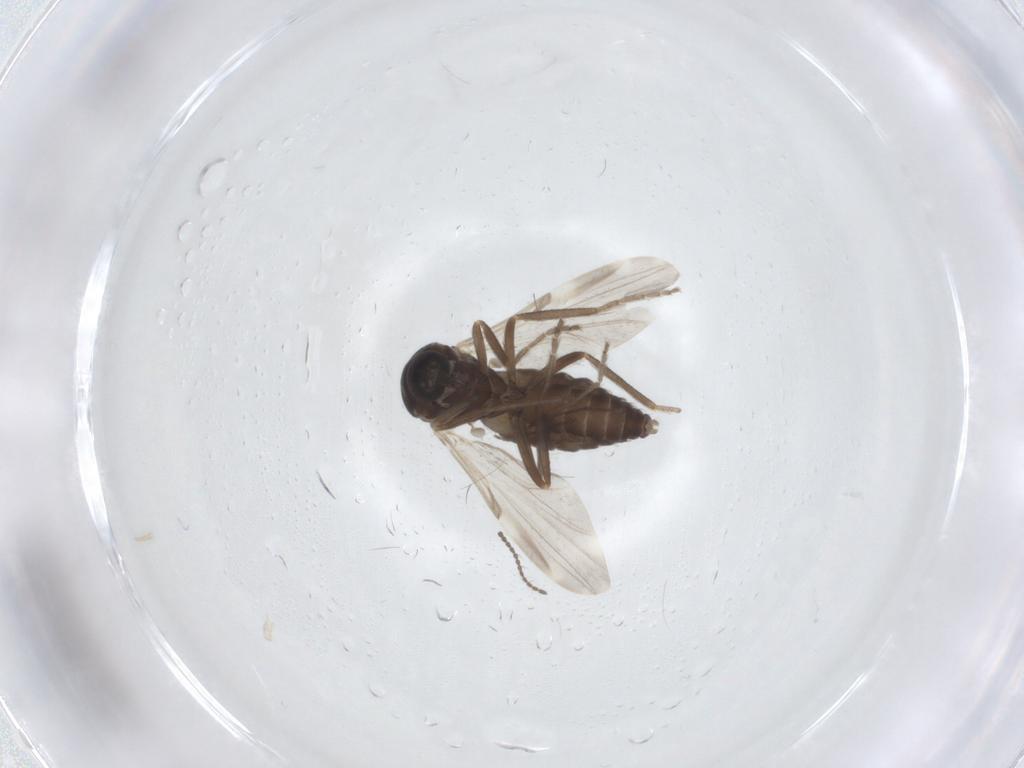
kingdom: Animalia
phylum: Arthropoda
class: Insecta
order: Diptera
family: Ceratopogonidae
